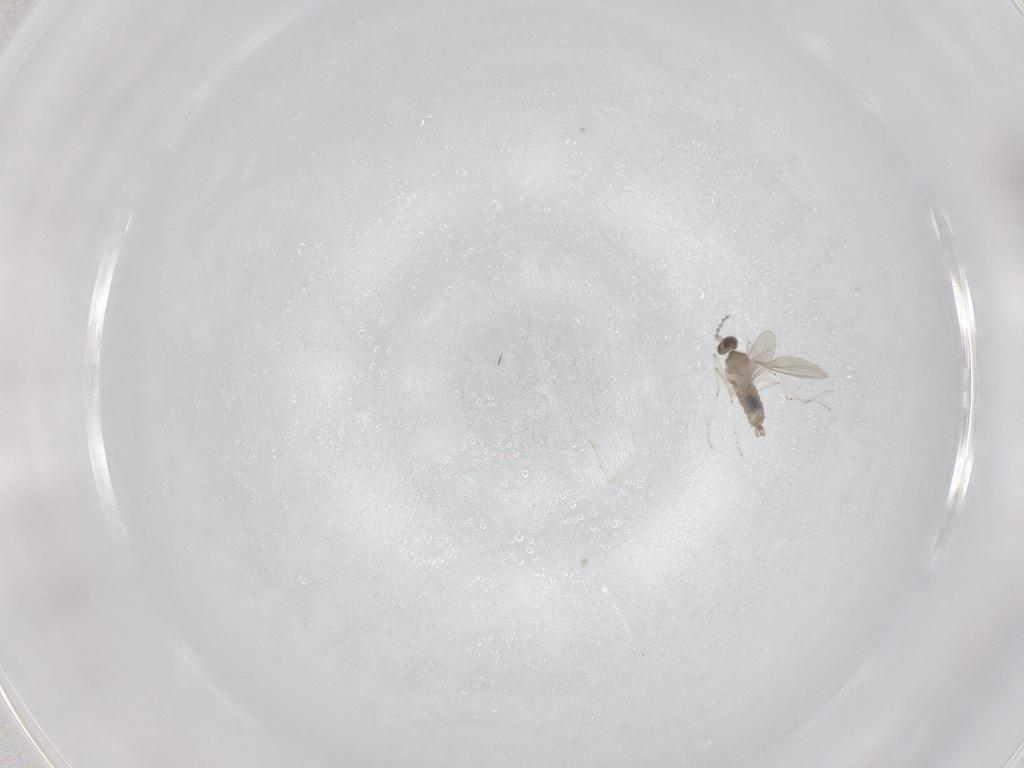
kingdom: Animalia
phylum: Arthropoda
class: Insecta
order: Diptera
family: Cecidomyiidae
